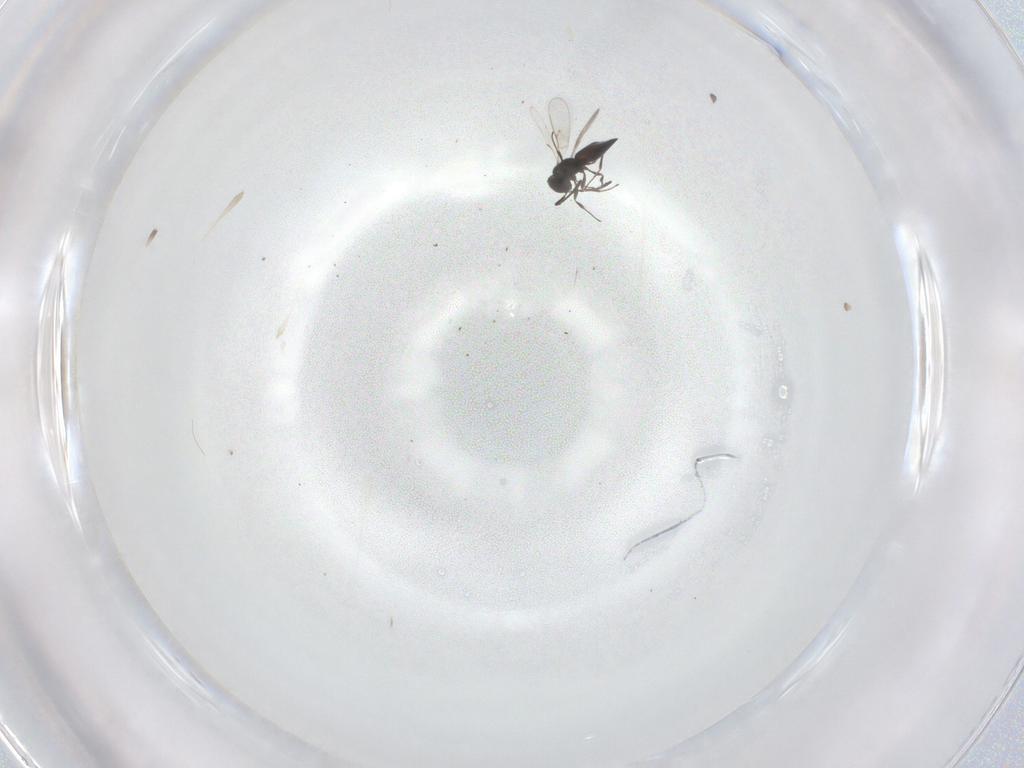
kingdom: Animalia
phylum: Arthropoda
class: Insecta
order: Hymenoptera
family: Scelionidae
